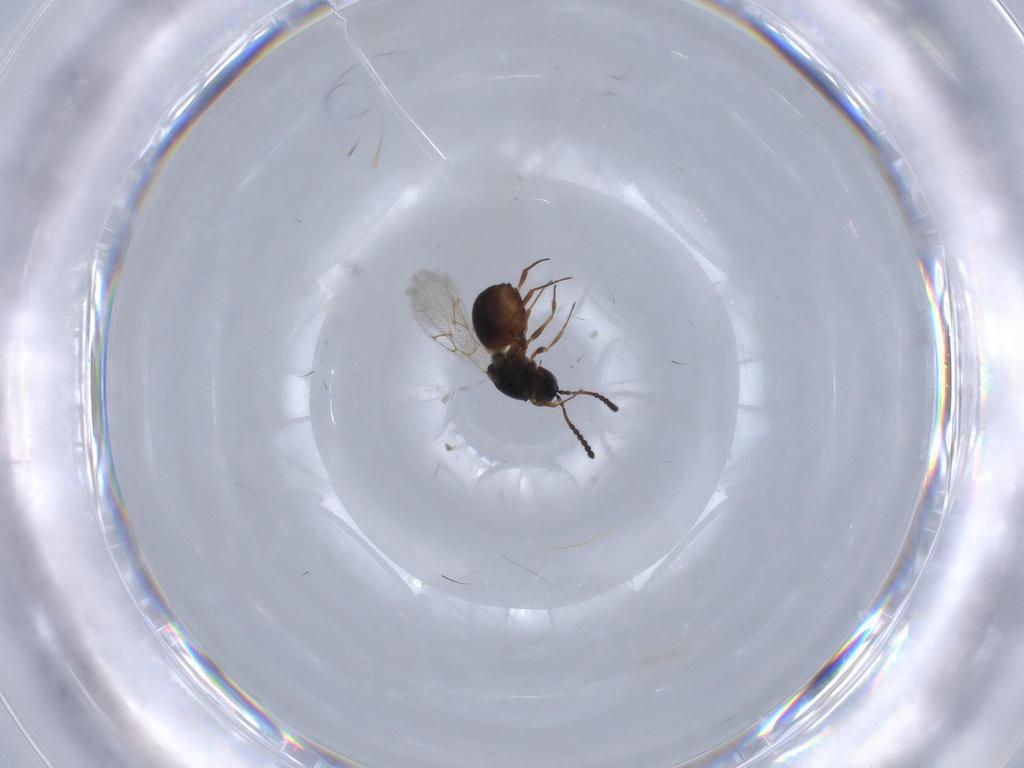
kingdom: Animalia
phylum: Arthropoda
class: Insecta
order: Hymenoptera
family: Figitidae
